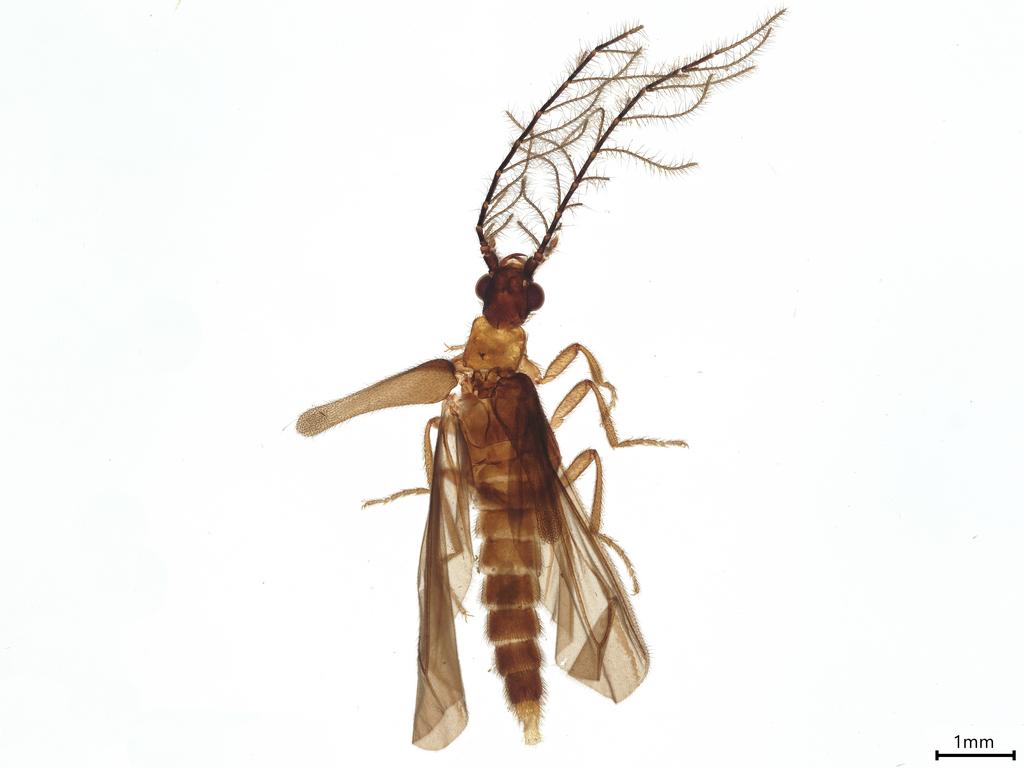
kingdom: Animalia
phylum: Arthropoda
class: Insecta
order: Coleoptera
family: Phengodidae
